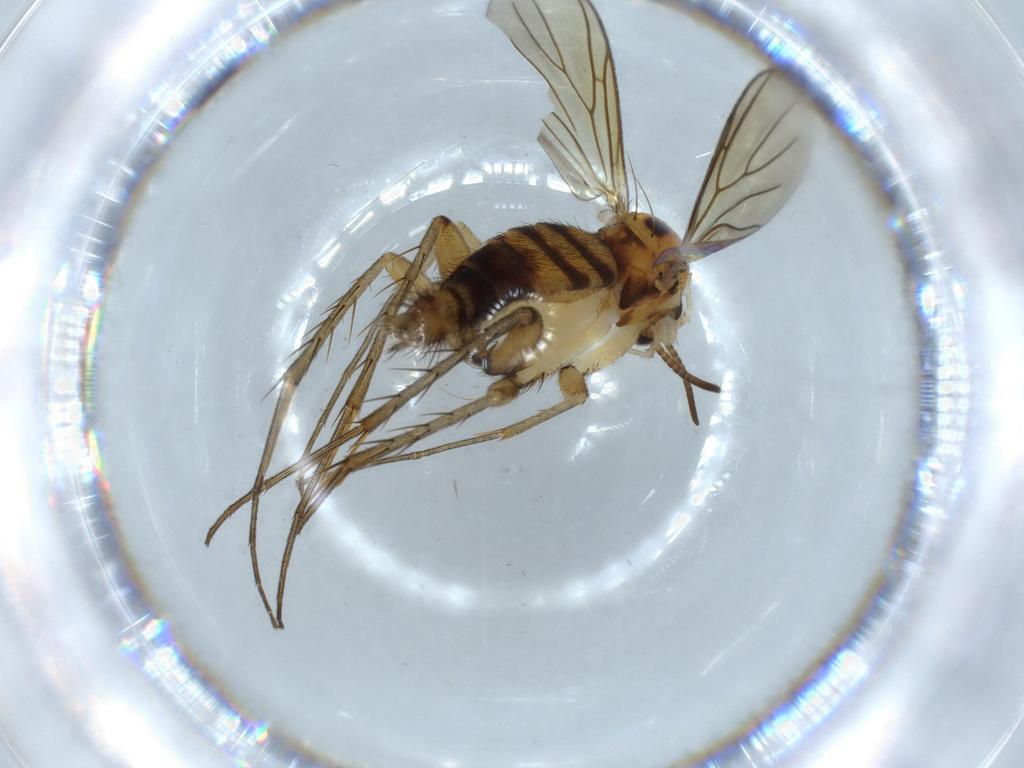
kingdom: Animalia
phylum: Arthropoda
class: Insecta
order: Diptera
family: Mycetophilidae
